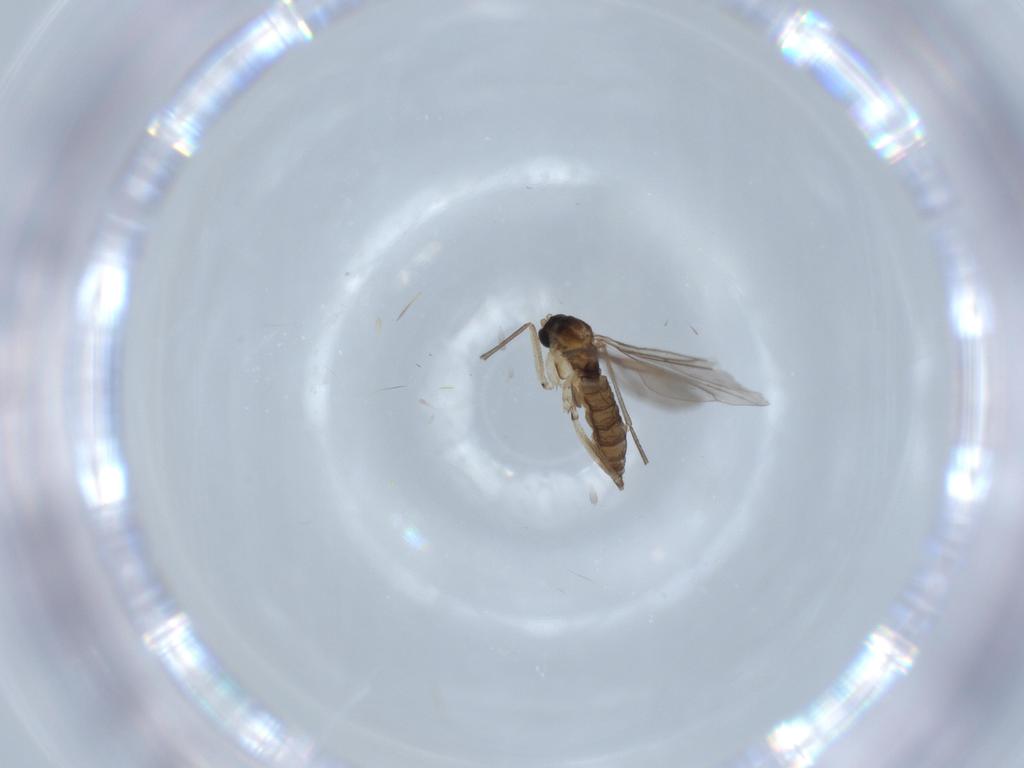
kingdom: Animalia
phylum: Arthropoda
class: Insecta
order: Diptera
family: Sciaridae
